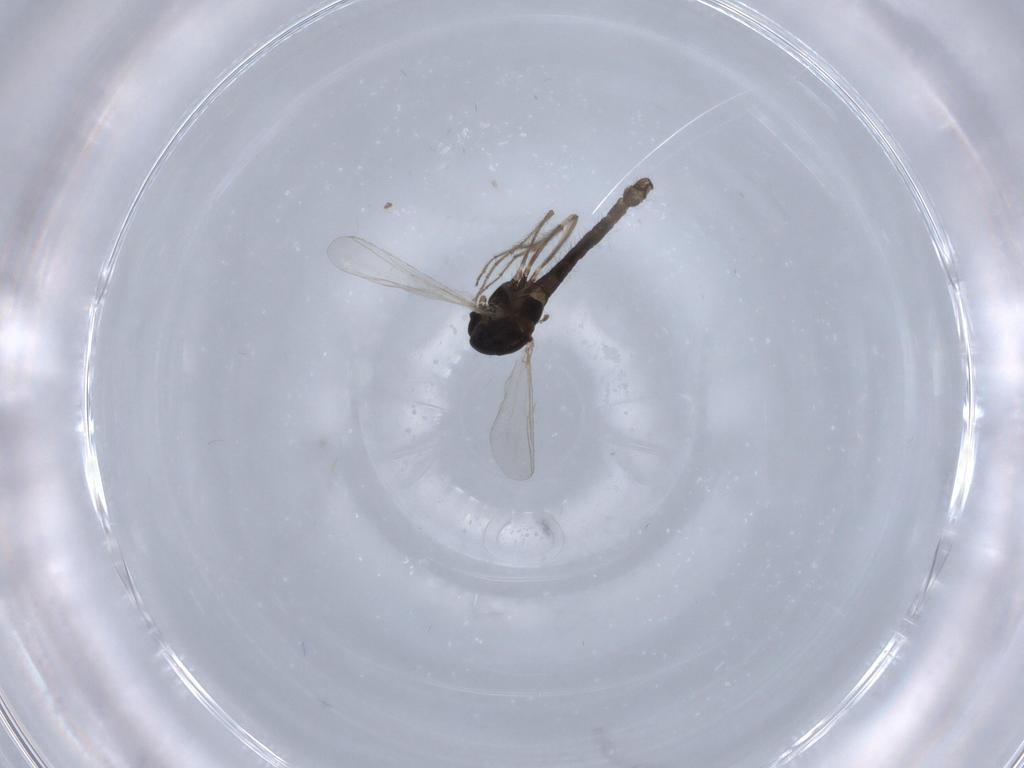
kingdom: Animalia
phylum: Arthropoda
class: Insecta
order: Diptera
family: Chironomidae
